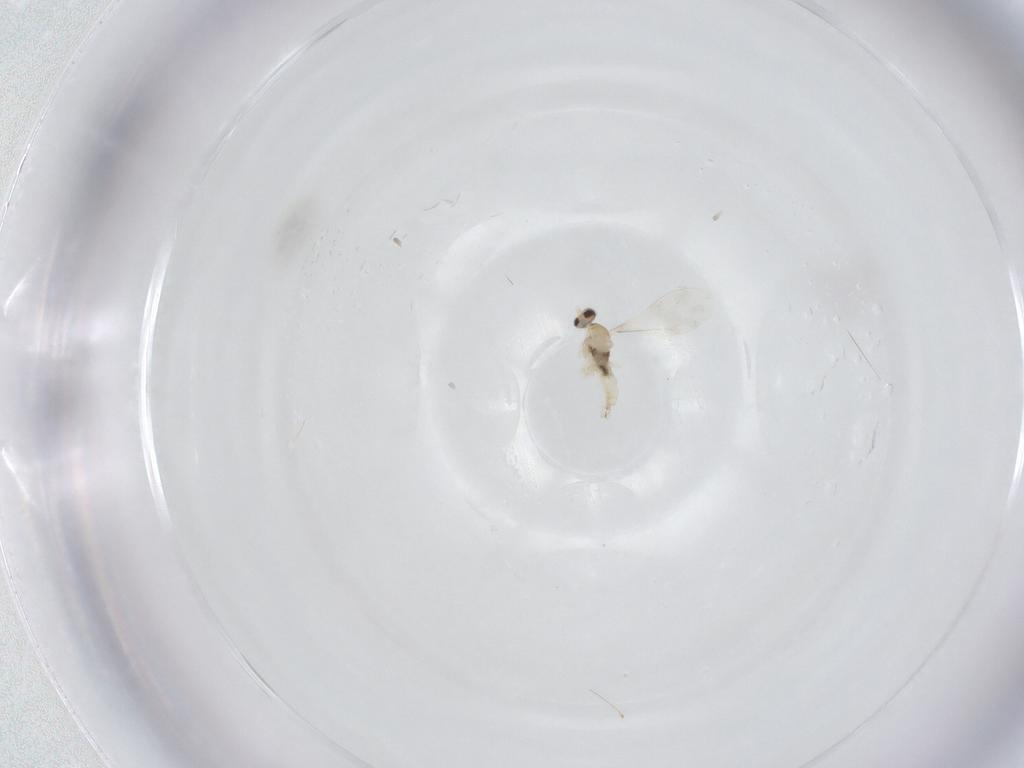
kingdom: Animalia
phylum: Arthropoda
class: Insecta
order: Diptera
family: Cecidomyiidae
